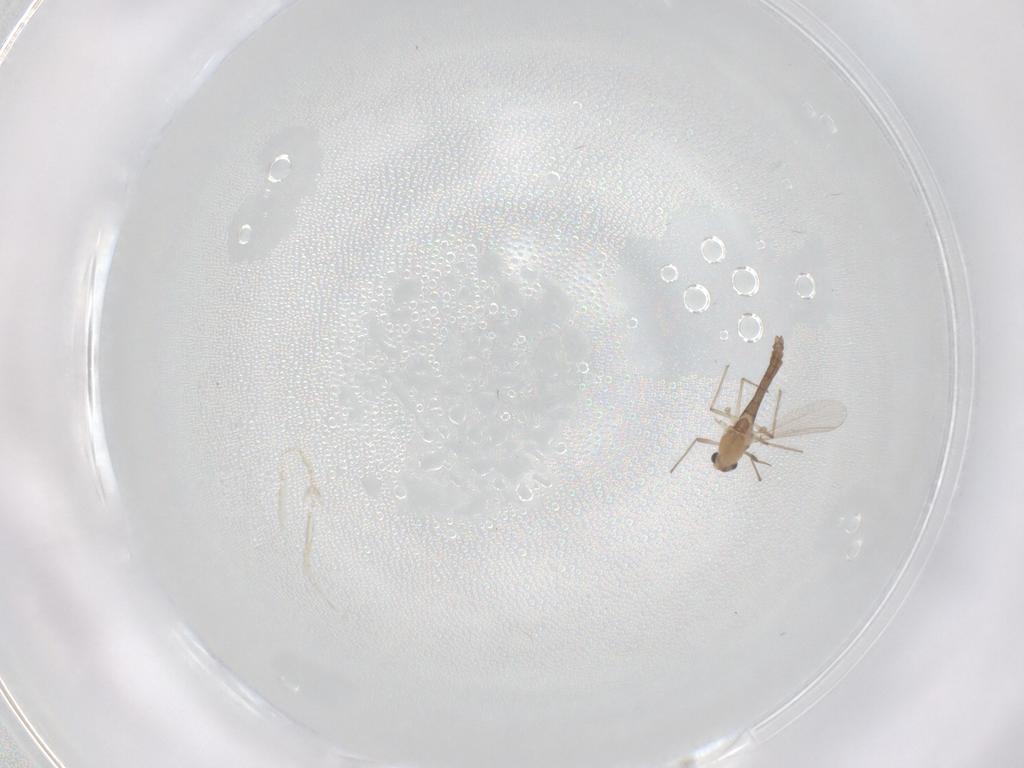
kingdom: Animalia
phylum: Arthropoda
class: Insecta
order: Diptera
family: Chironomidae
